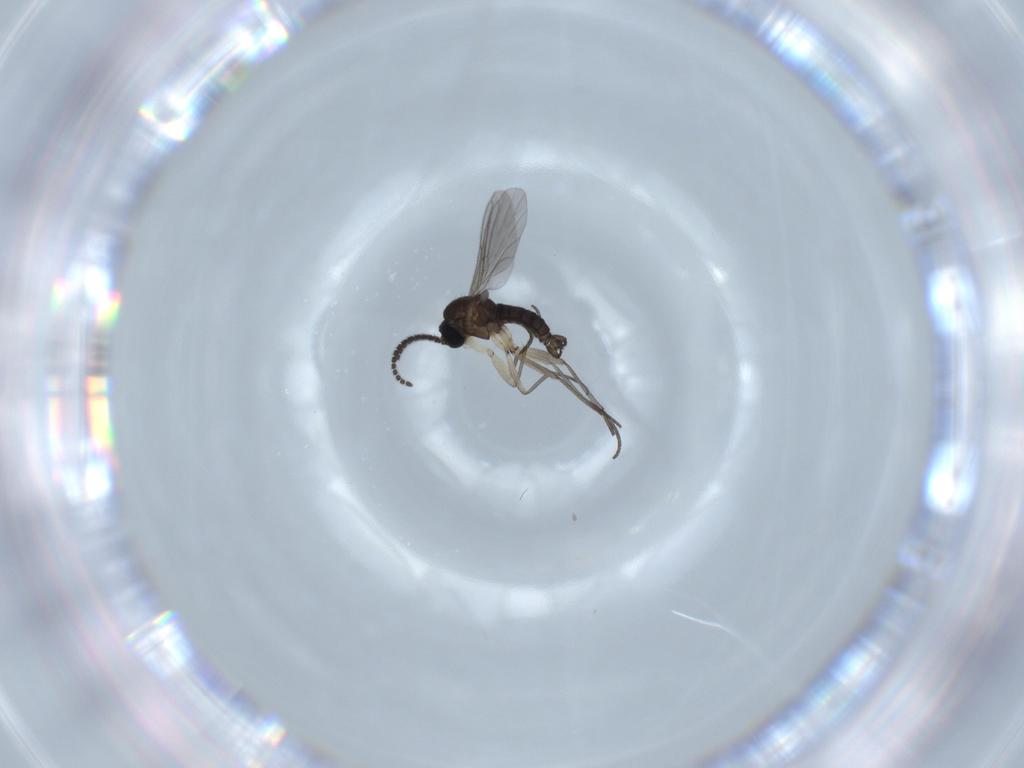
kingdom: Animalia
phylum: Arthropoda
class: Insecta
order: Diptera
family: Sciaridae
